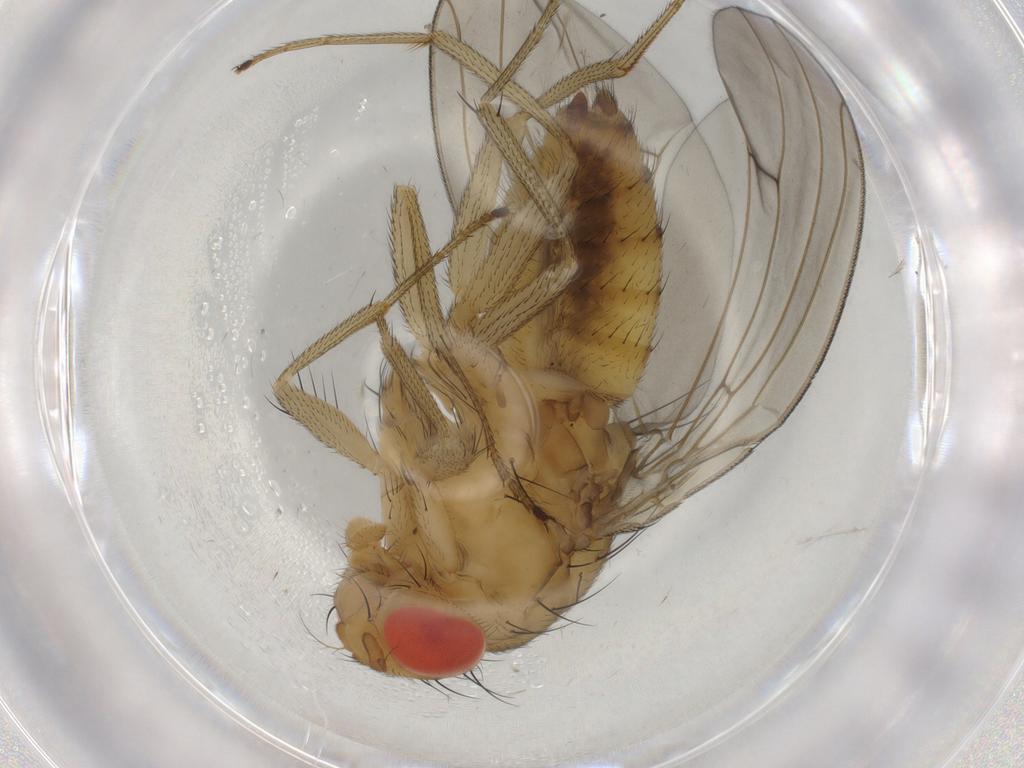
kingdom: Animalia
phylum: Arthropoda
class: Insecta
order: Diptera
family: Drosophilidae
